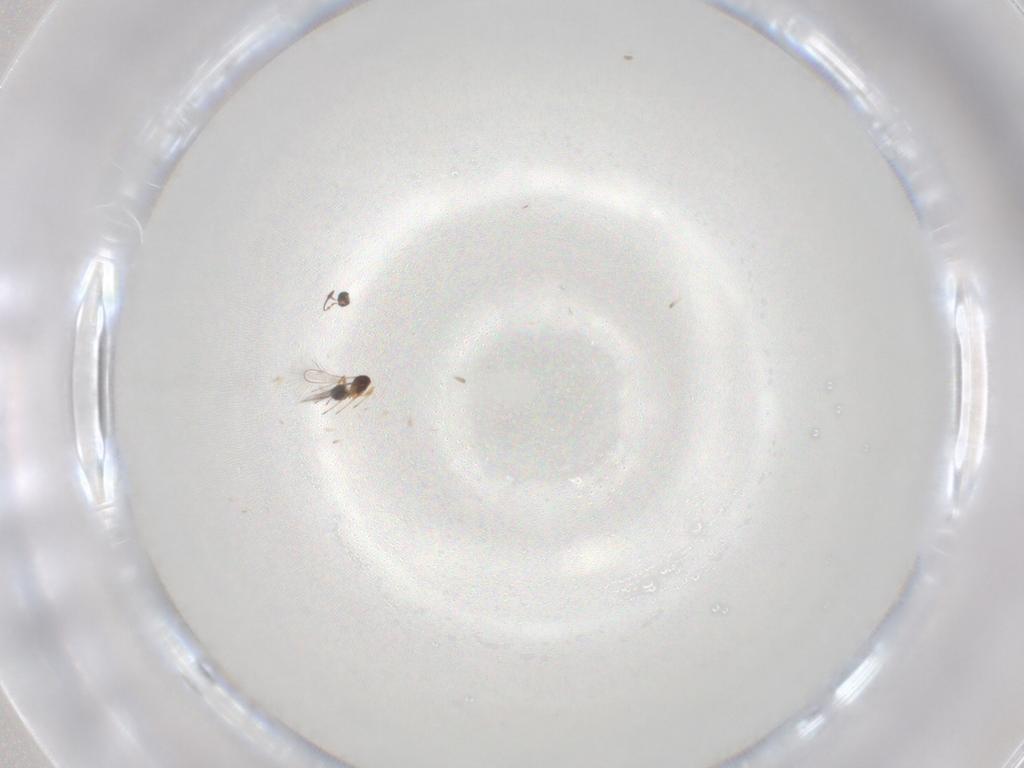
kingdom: Animalia
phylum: Arthropoda
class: Insecta
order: Hymenoptera
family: Mymaridae
